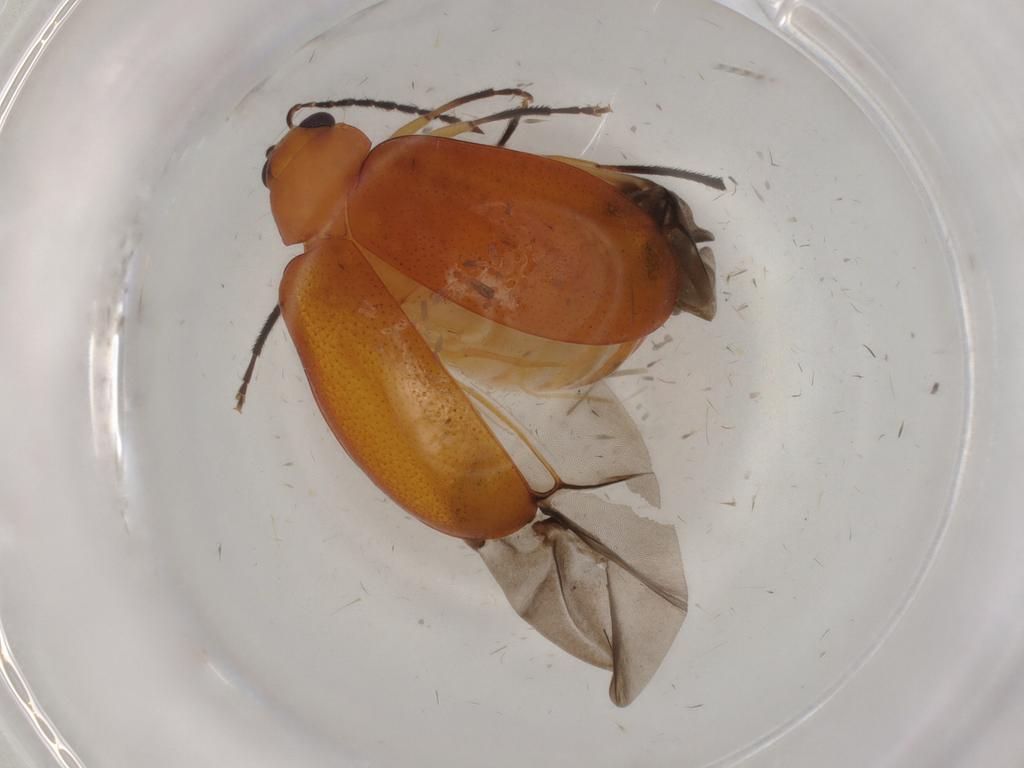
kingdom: Animalia
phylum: Arthropoda
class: Insecta
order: Coleoptera
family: Chrysomelidae
